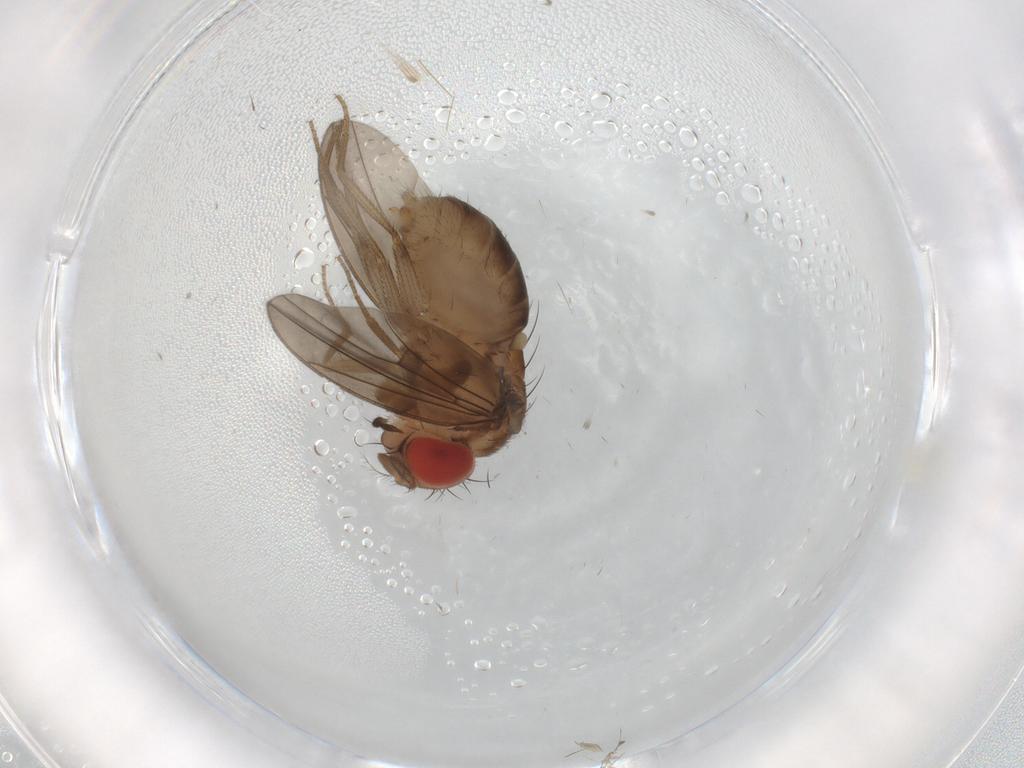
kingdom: Animalia
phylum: Arthropoda
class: Insecta
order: Diptera
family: Drosophilidae
